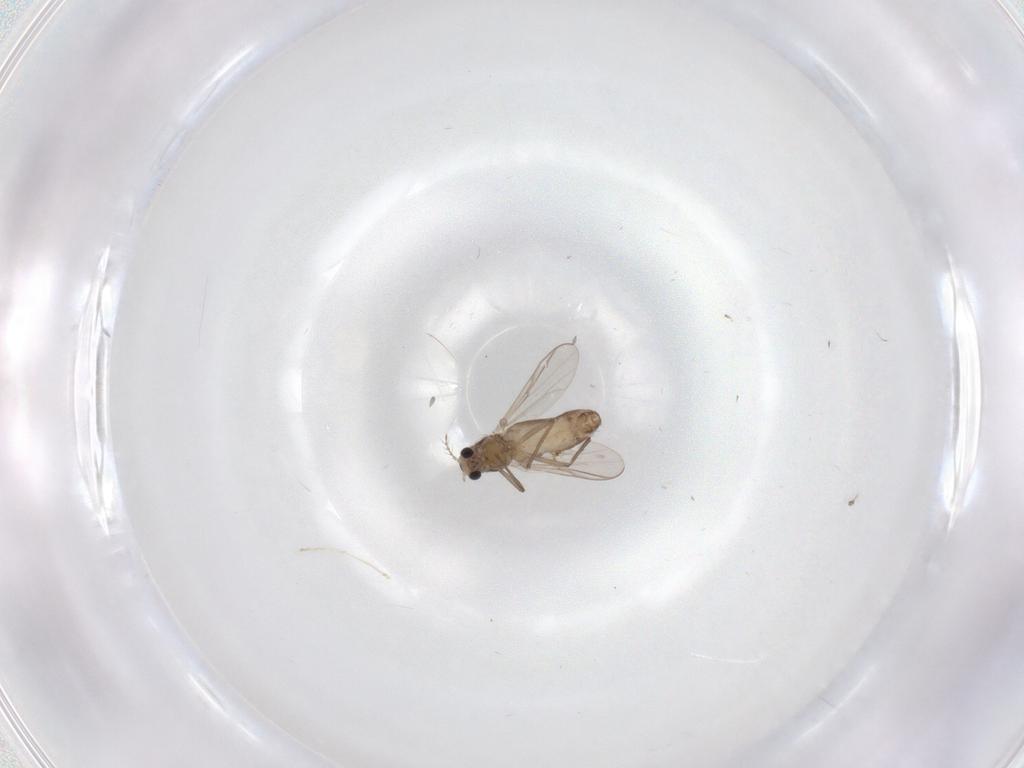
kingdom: Animalia
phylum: Arthropoda
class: Insecta
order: Diptera
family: Chironomidae
